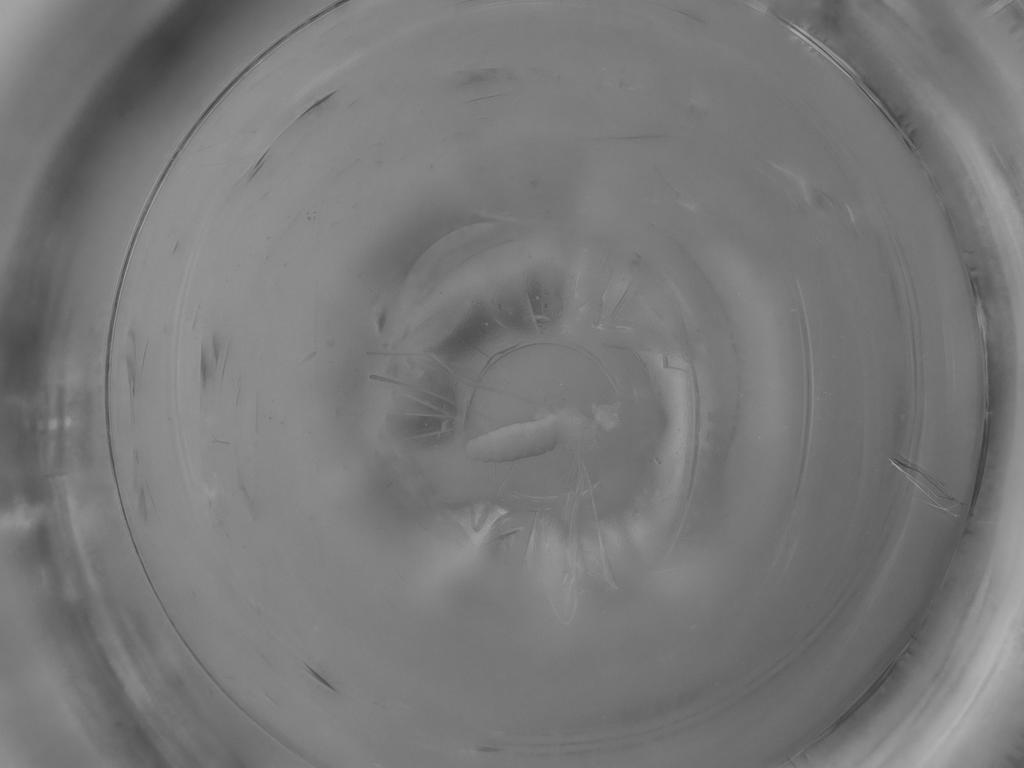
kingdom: Animalia
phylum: Arthropoda
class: Insecta
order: Diptera
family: Cecidomyiidae
